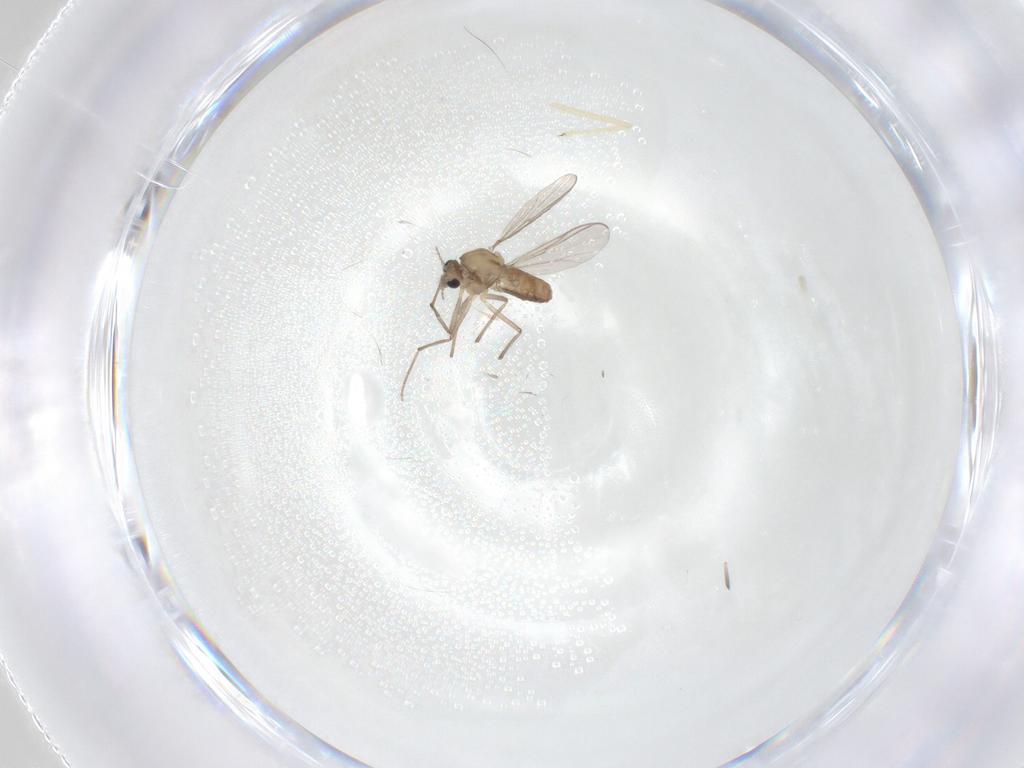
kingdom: Animalia
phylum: Arthropoda
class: Insecta
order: Diptera
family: Chironomidae
